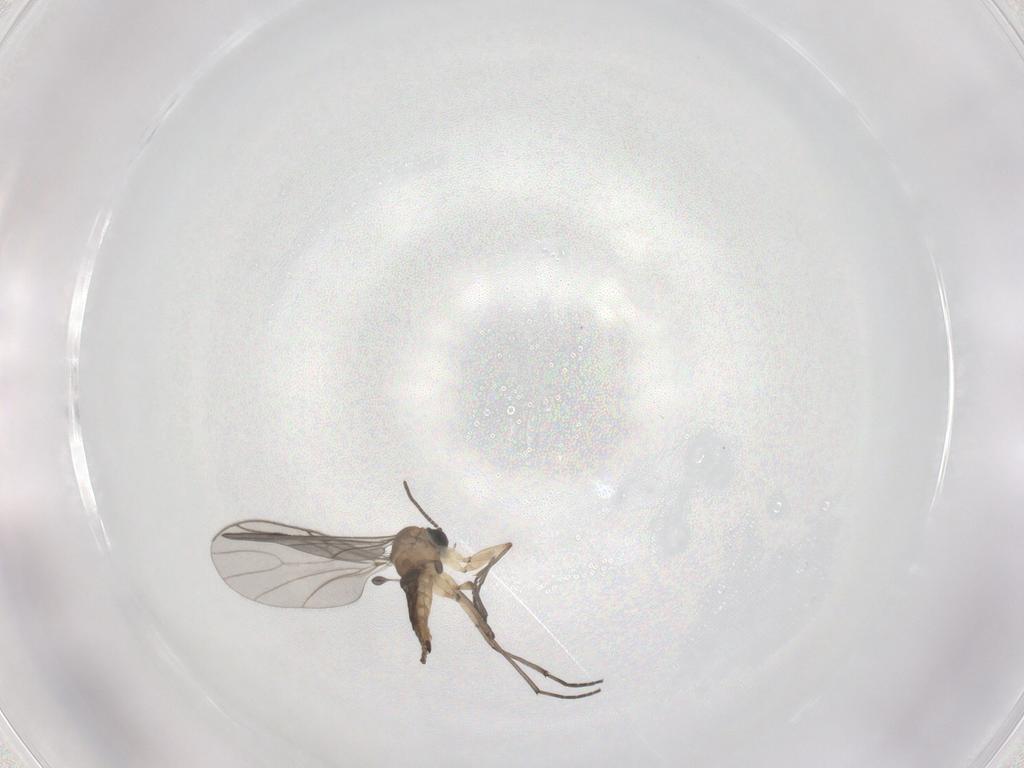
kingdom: Animalia
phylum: Arthropoda
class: Insecta
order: Diptera
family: Sciaridae
